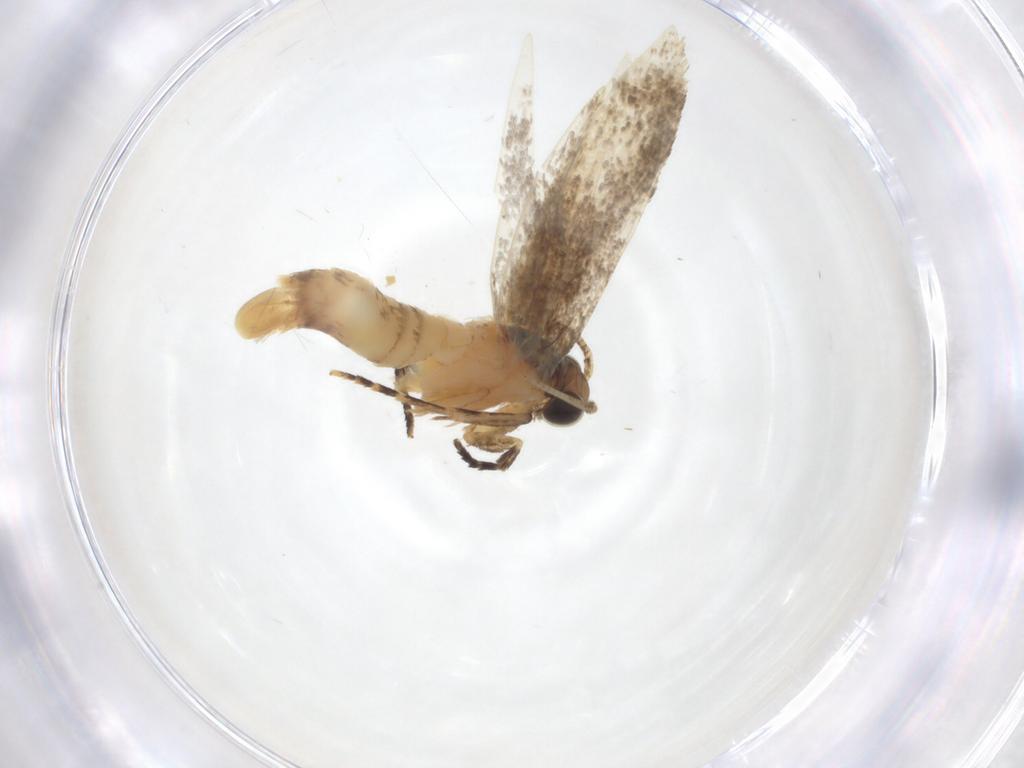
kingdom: Animalia
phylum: Arthropoda
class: Insecta
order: Lepidoptera
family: Tineidae
